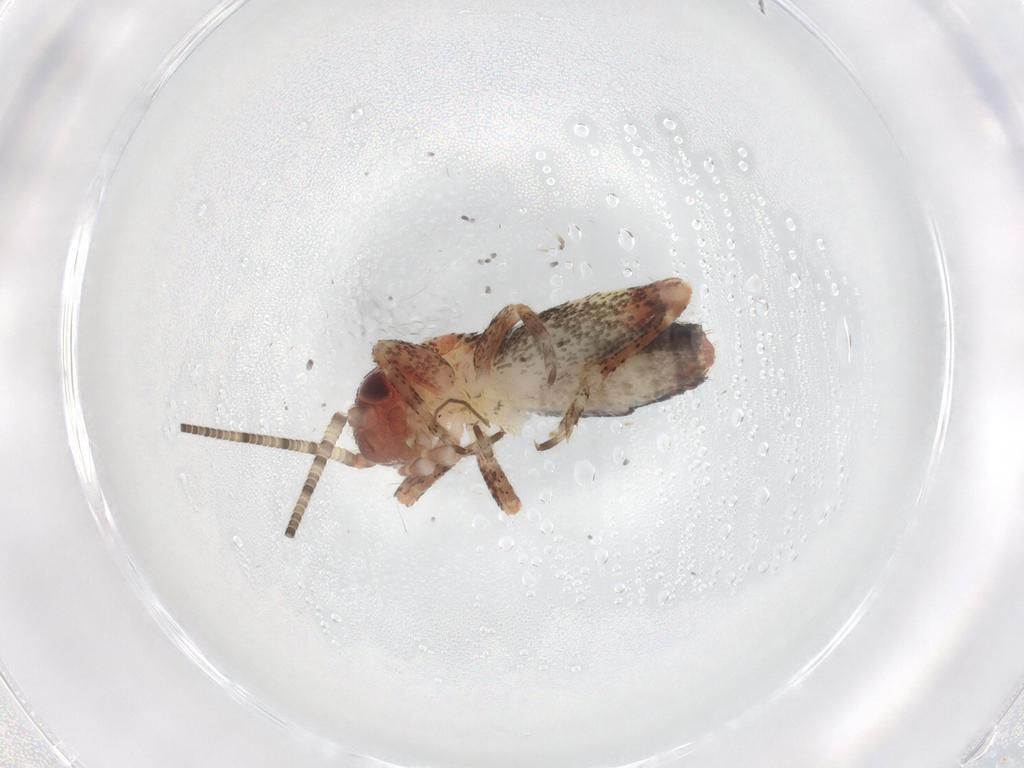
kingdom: Animalia
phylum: Arthropoda
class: Insecta
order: Orthoptera
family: Mogoplistidae
